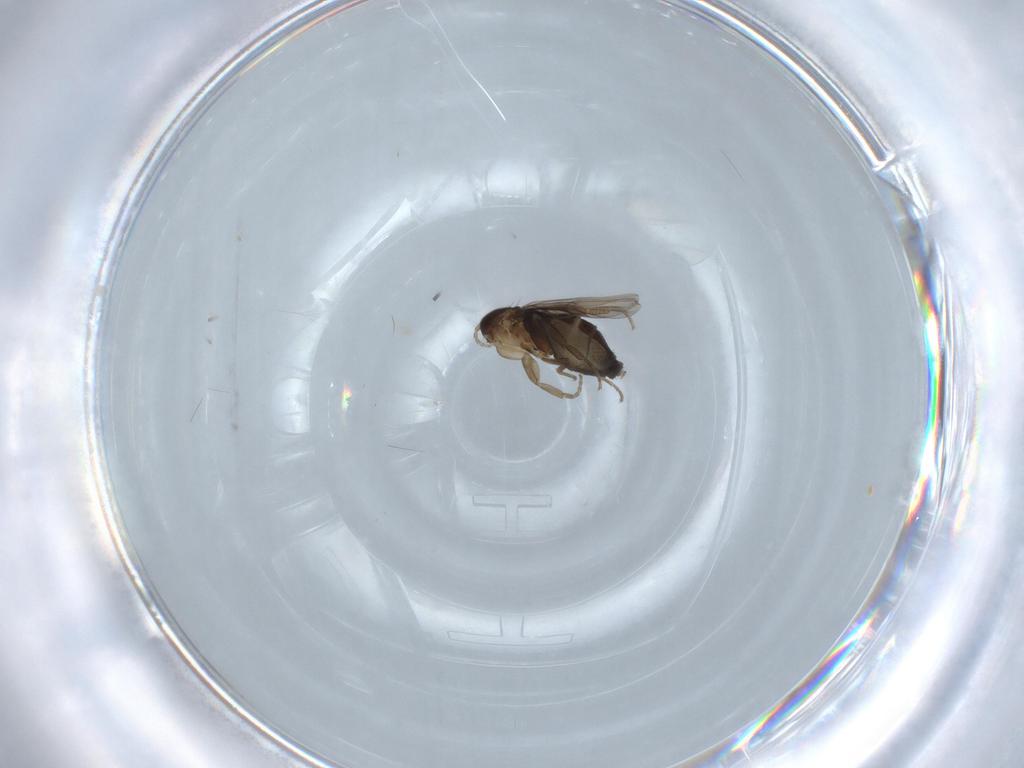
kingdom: Animalia
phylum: Arthropoda
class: Insecta
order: Diptera
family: Phoridae
